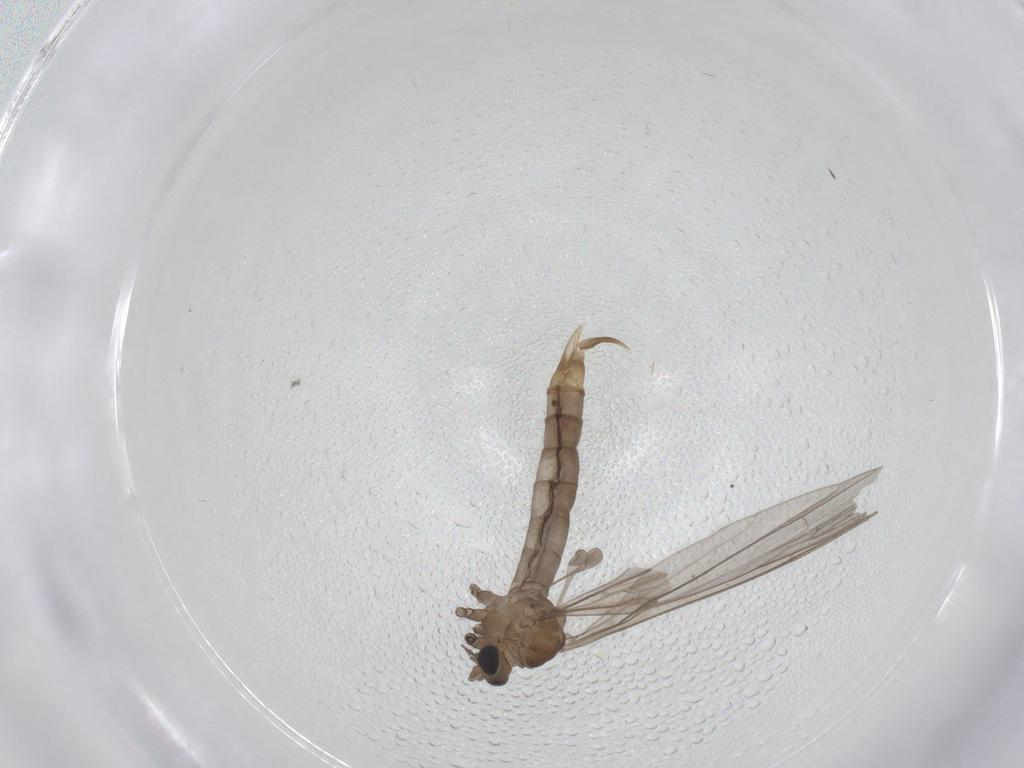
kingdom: Animalia
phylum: Arthropoda
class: Insecta
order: Diptera
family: Limoniidae
